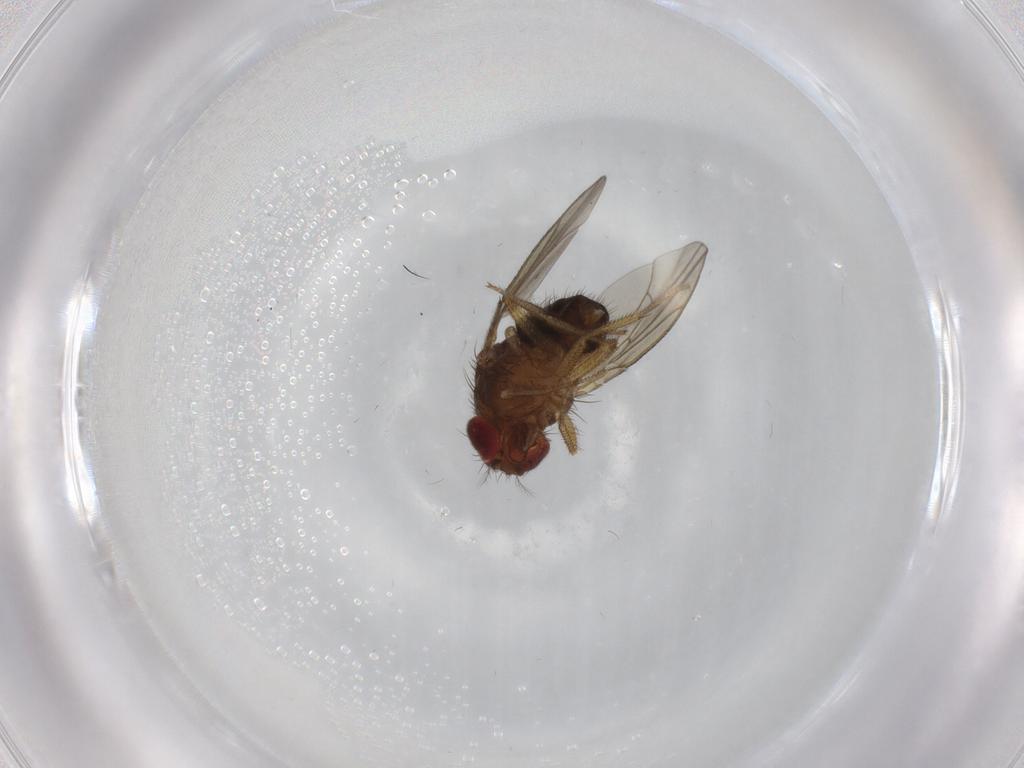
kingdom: Animalia
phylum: Arthropoda
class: Insecta
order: Diptera
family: Drosophilidae
